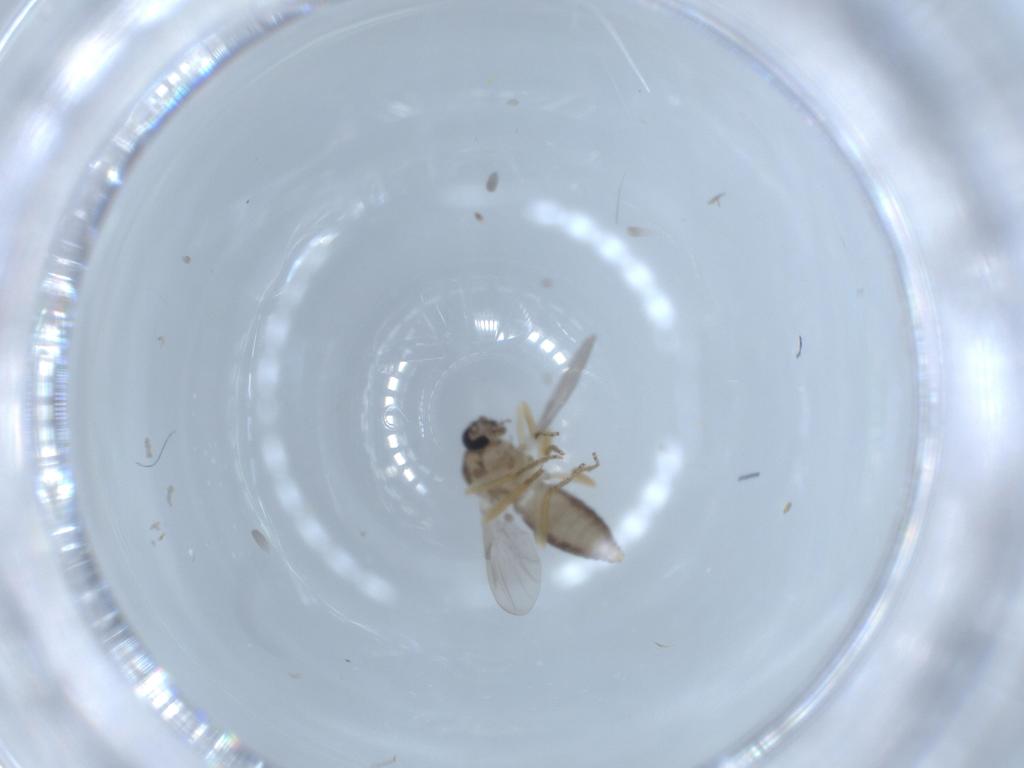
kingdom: Animalia
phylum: Arthropoda
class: Insecta
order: Diptera
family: Ceratopogonidae
